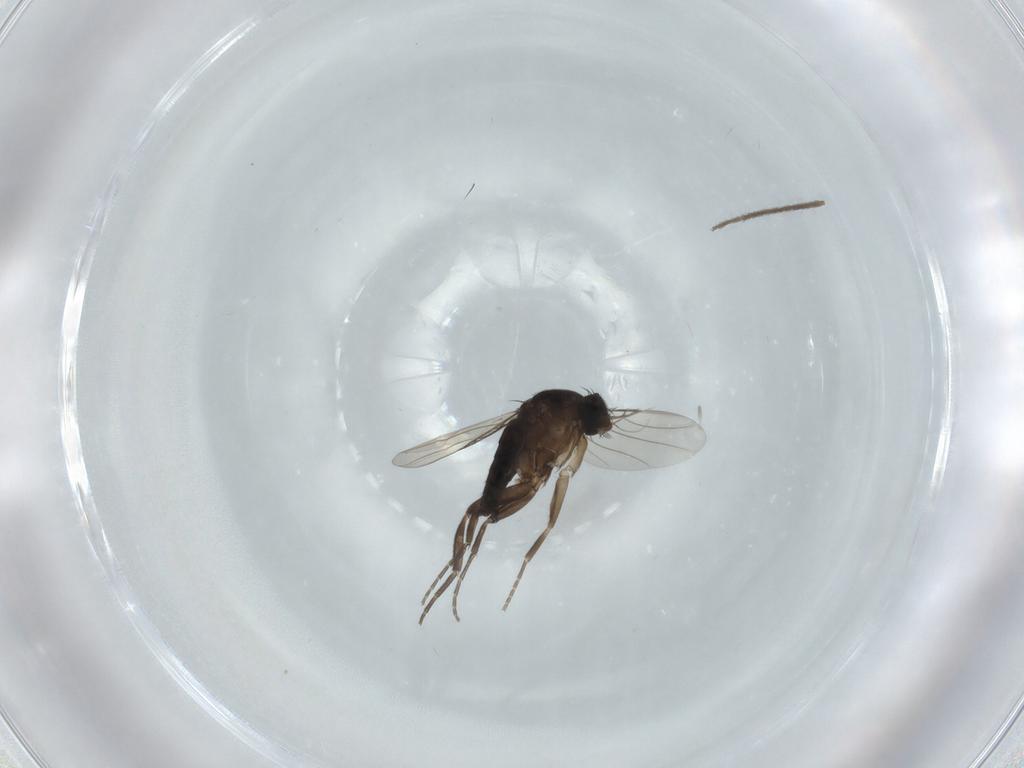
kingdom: Animalia
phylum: Arthropoda
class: Insecta
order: Diptera
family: Phoridae
